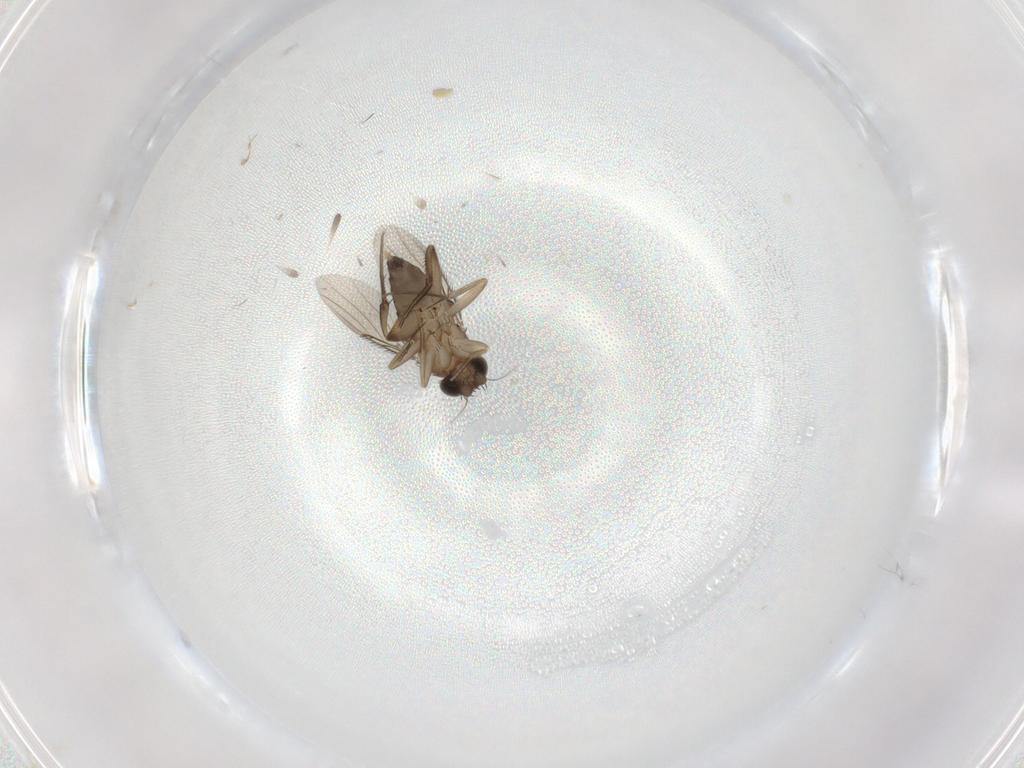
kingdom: Animalia
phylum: Arthropoda
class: Insecta
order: Diptera
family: Phoridae
